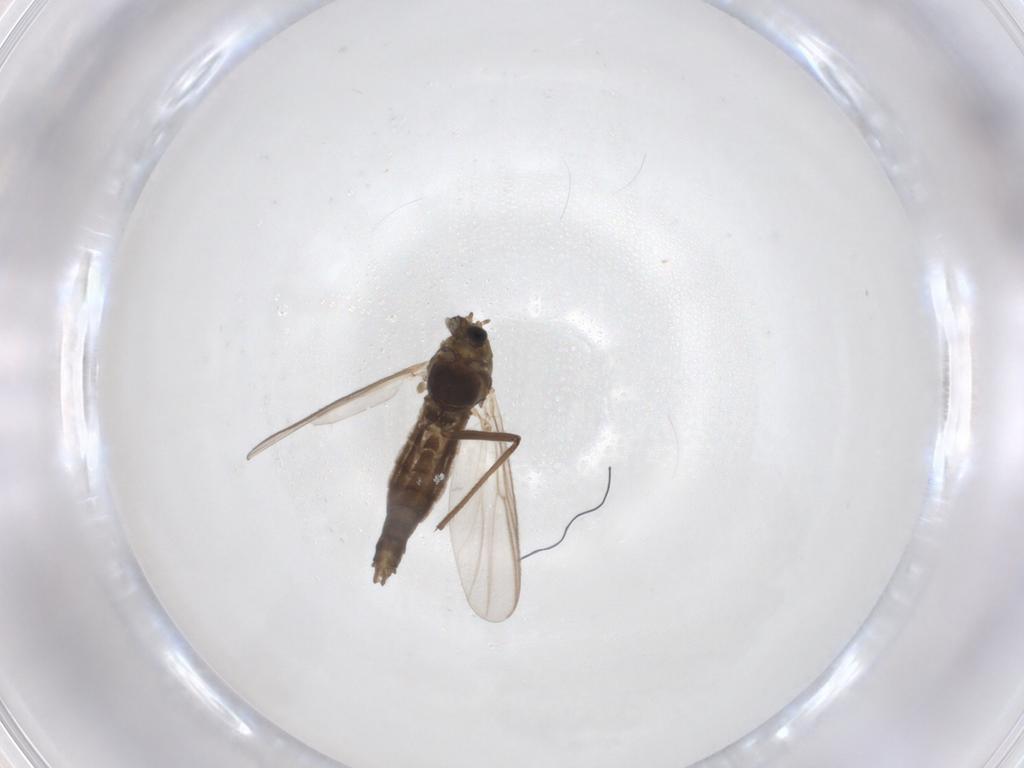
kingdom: Animalia
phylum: Arthropoda
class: Insecta
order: Diptera
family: Chironomidae
